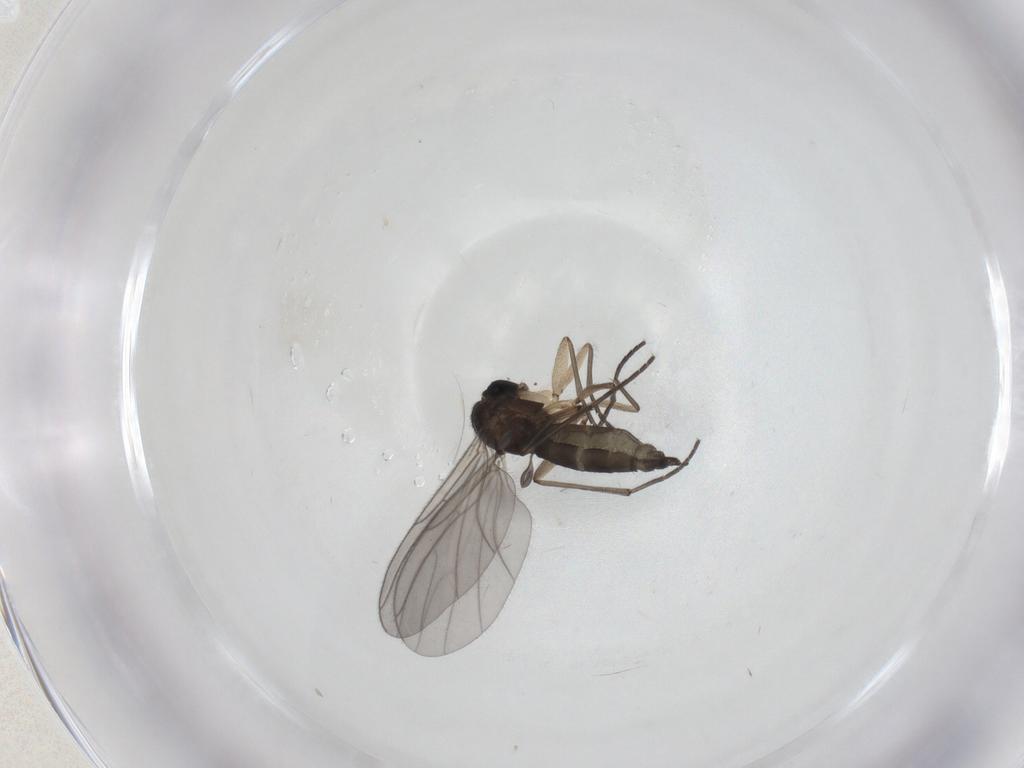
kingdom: Animalia
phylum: Arthropoda
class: Insecta
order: Diptera
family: Sciaridae
